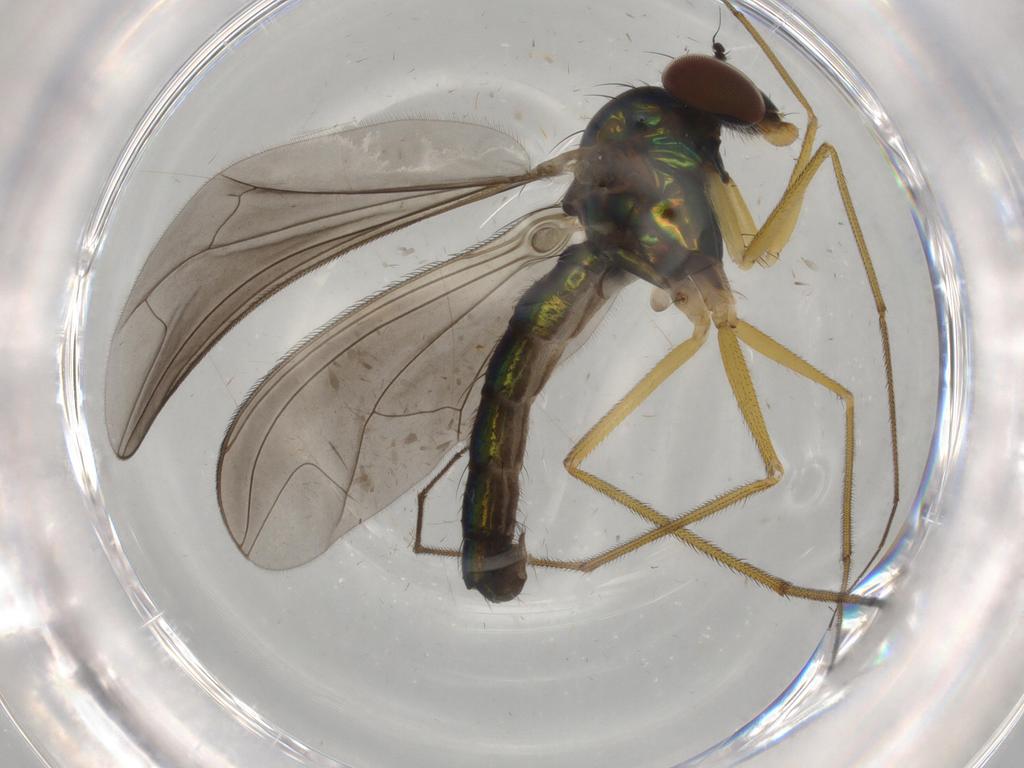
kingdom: Animalia
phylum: Arthropoda
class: Insecta
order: Diptera
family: Dolichopodidae
